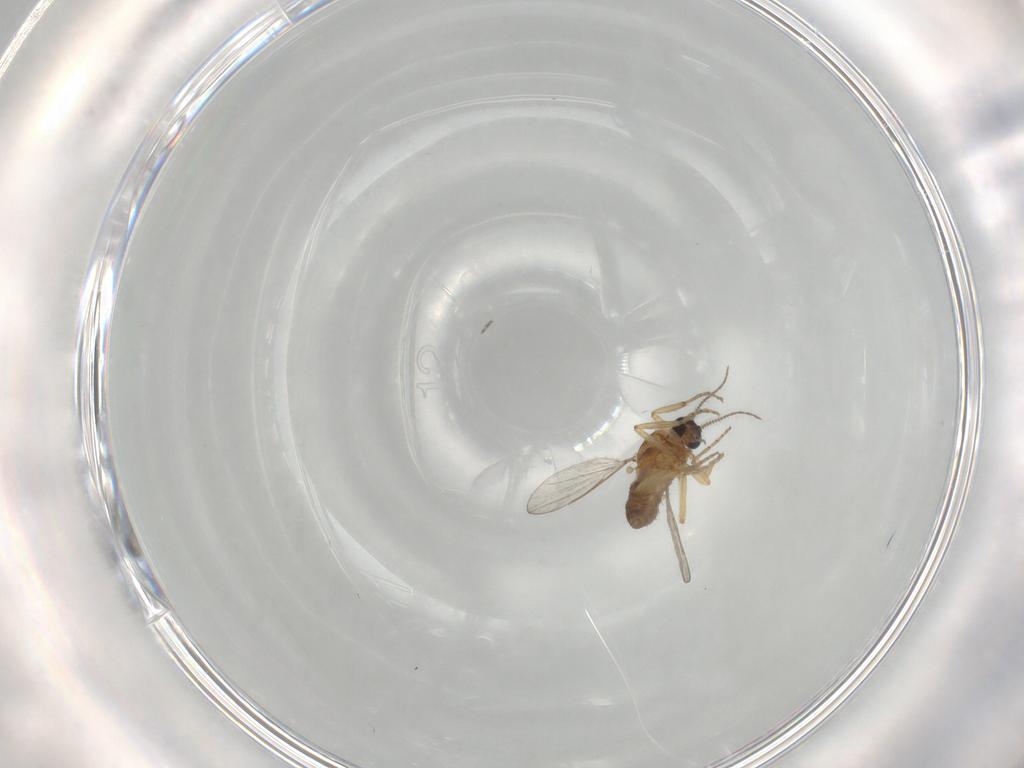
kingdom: Animalia
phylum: Arthropoda
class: Insecta
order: Diptera
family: Ceratopogonidae
